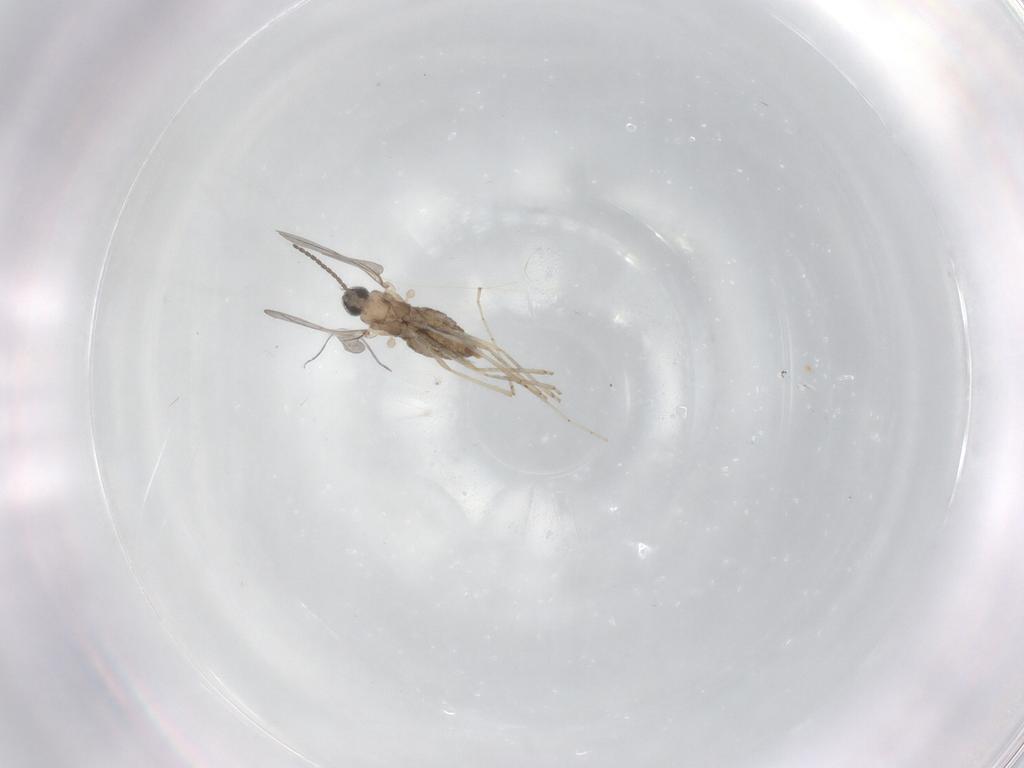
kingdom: Animalia
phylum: Arthropoda
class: Insecta
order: Diptera
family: Cecidomyiidae
